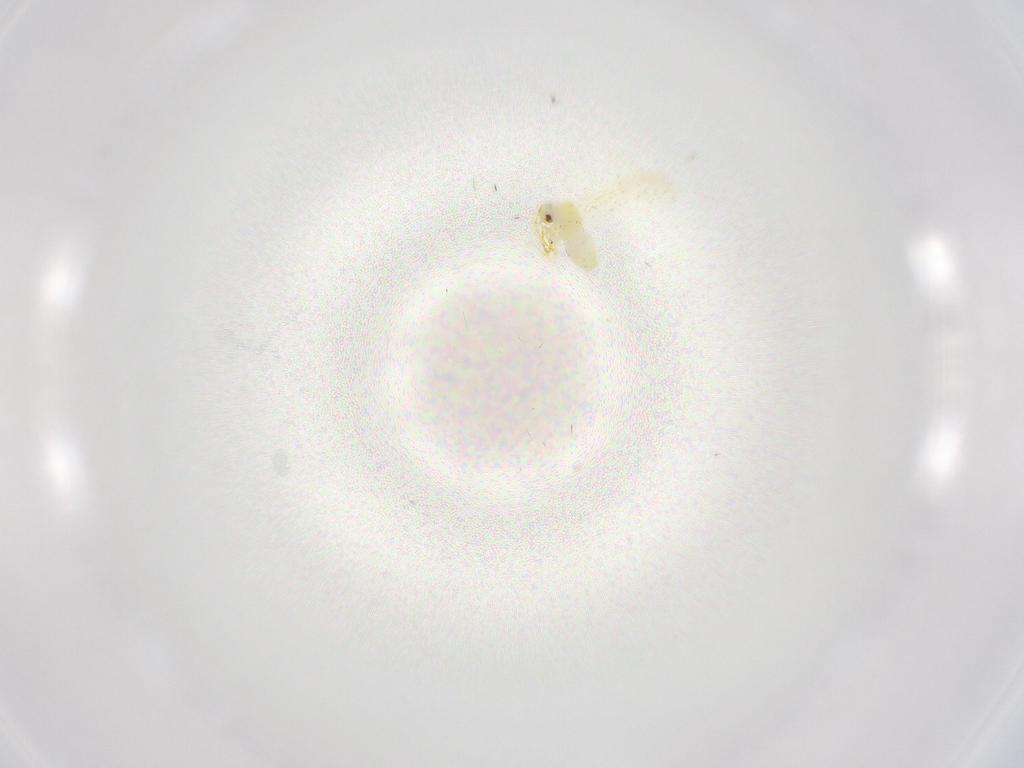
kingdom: Animalia
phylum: Arthropoda
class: Insecta
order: Hemiptera
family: Aleyrodidae
